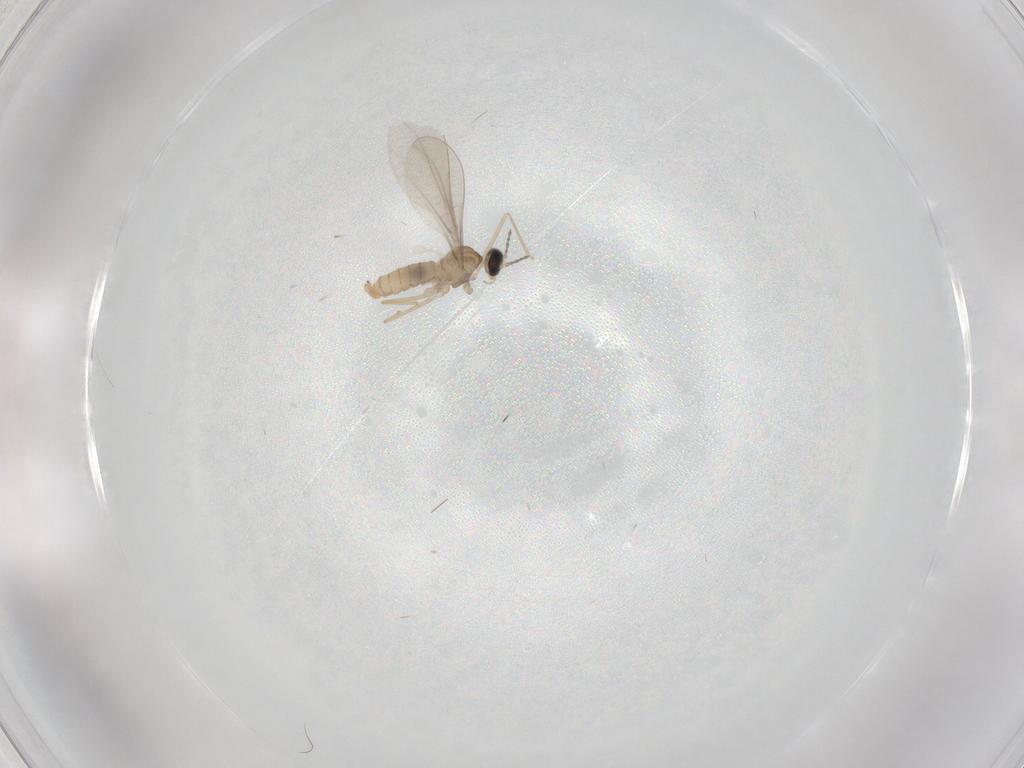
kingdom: Animalia
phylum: Arthropoda
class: Insecta
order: Diptera
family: Cecidomyiidae
